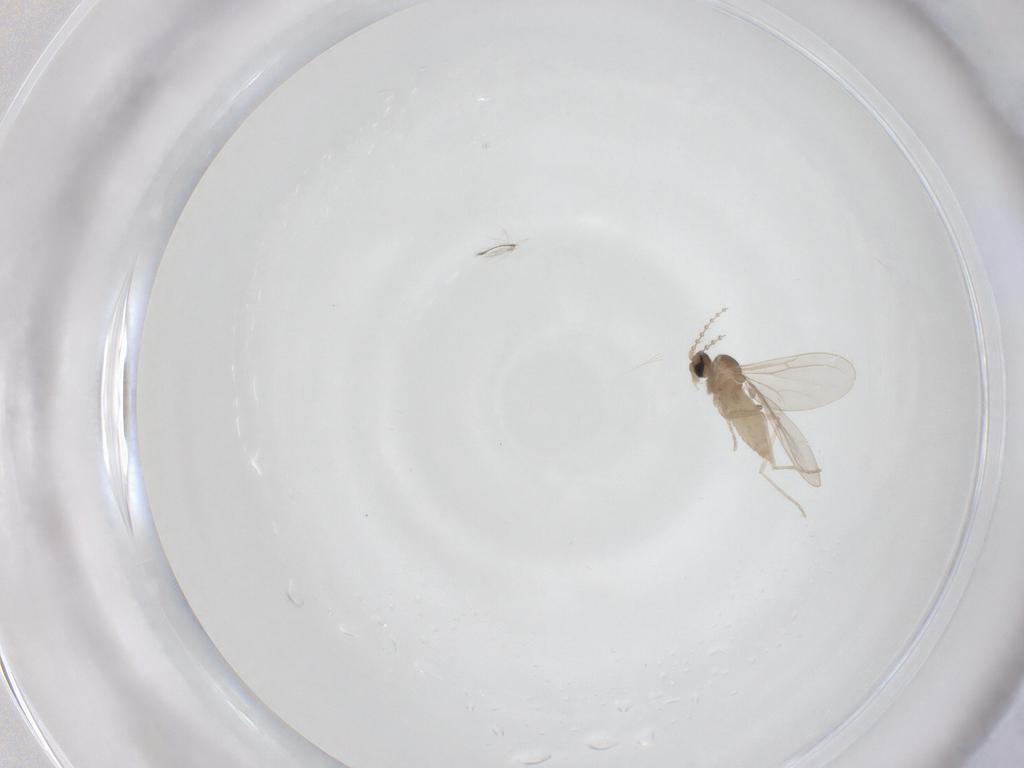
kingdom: Animalia
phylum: Arthropoda
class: Insecta
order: Diptera
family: Cecidomyiidae
